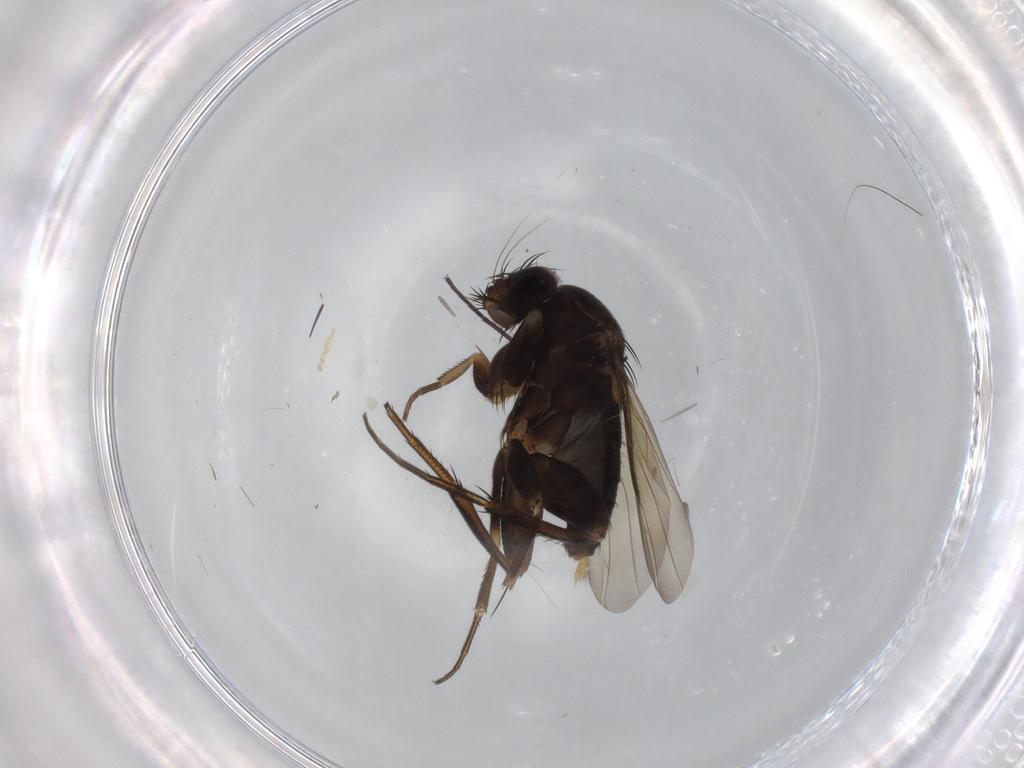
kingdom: Animalia
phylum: Arthropoda
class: Insecta
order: Diptera
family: Phoridae
